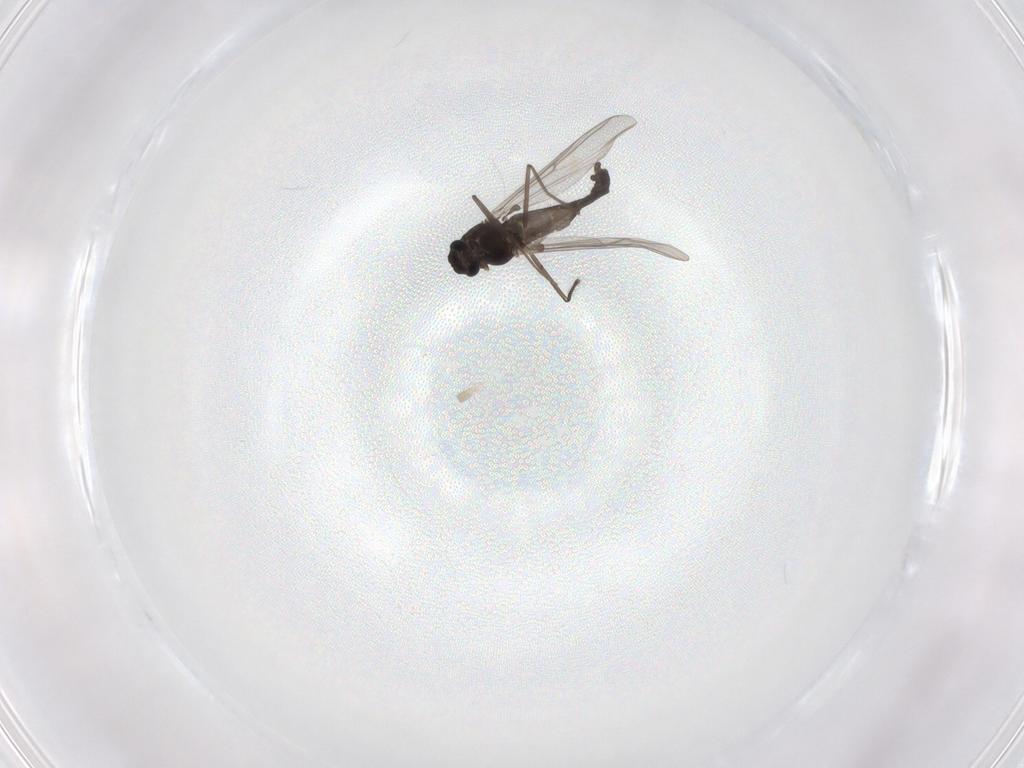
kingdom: Animalia
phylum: Arthropoda
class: Insecta
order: Diptera
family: Chironomidae
